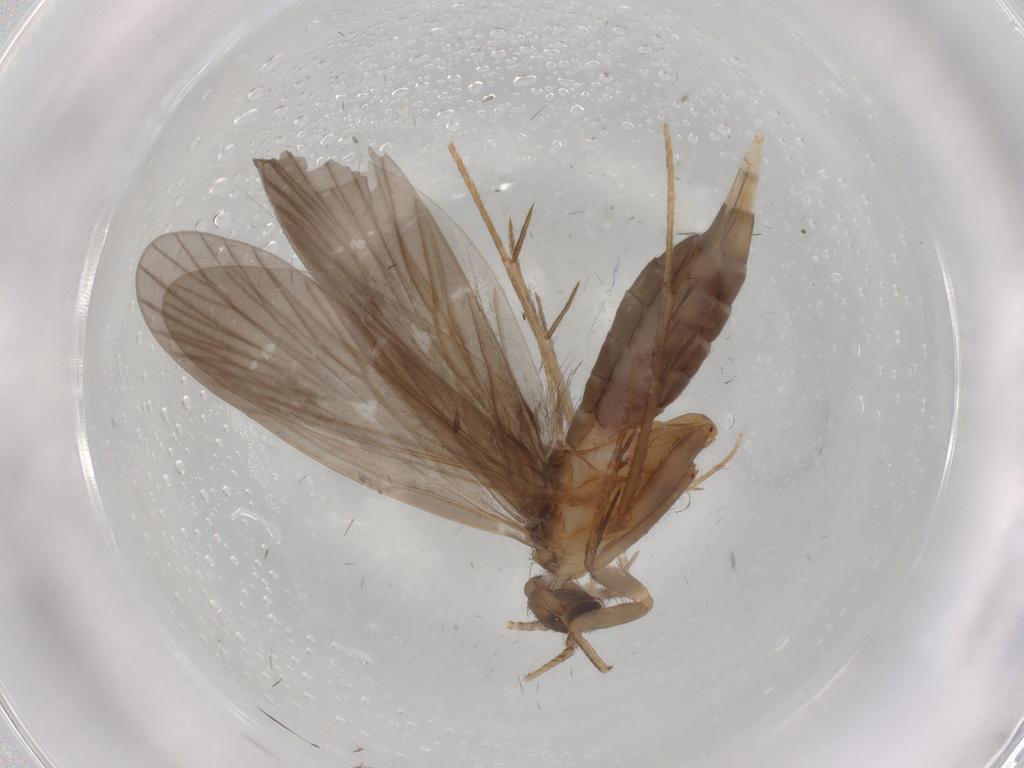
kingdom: Animalia
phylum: Arthropoda
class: Insecta
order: Trichoptera
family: Philopotamidae
